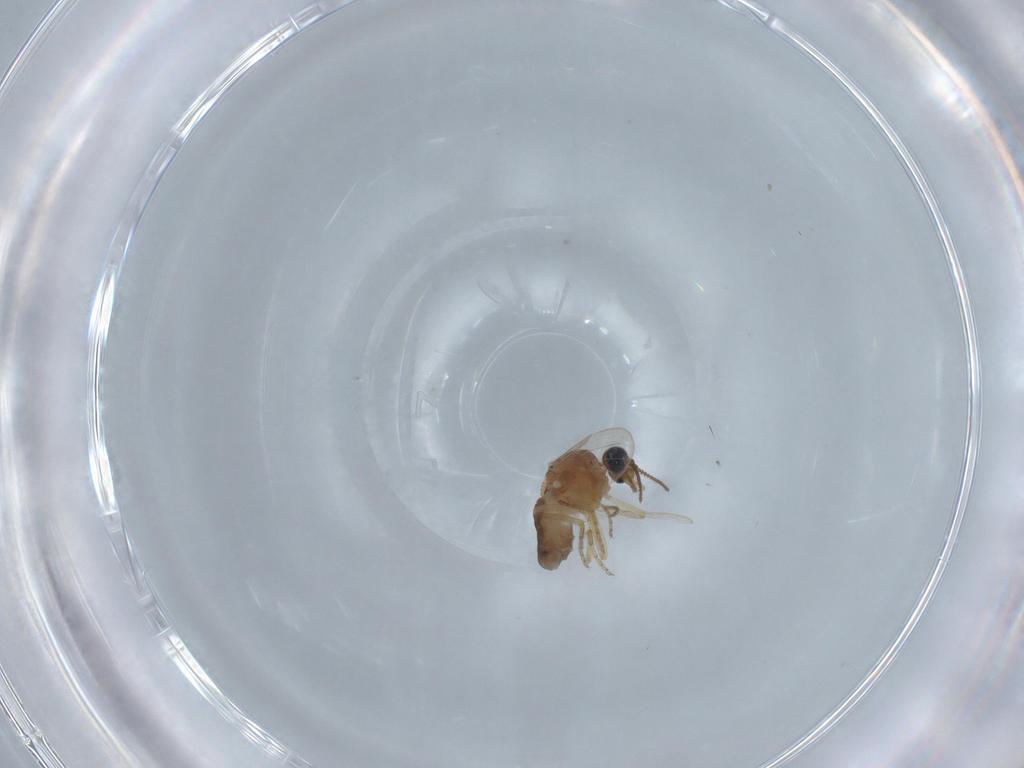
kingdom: Animalia
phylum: Arthropoda
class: Insecta
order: Diptera
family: Ceratopogonidae
